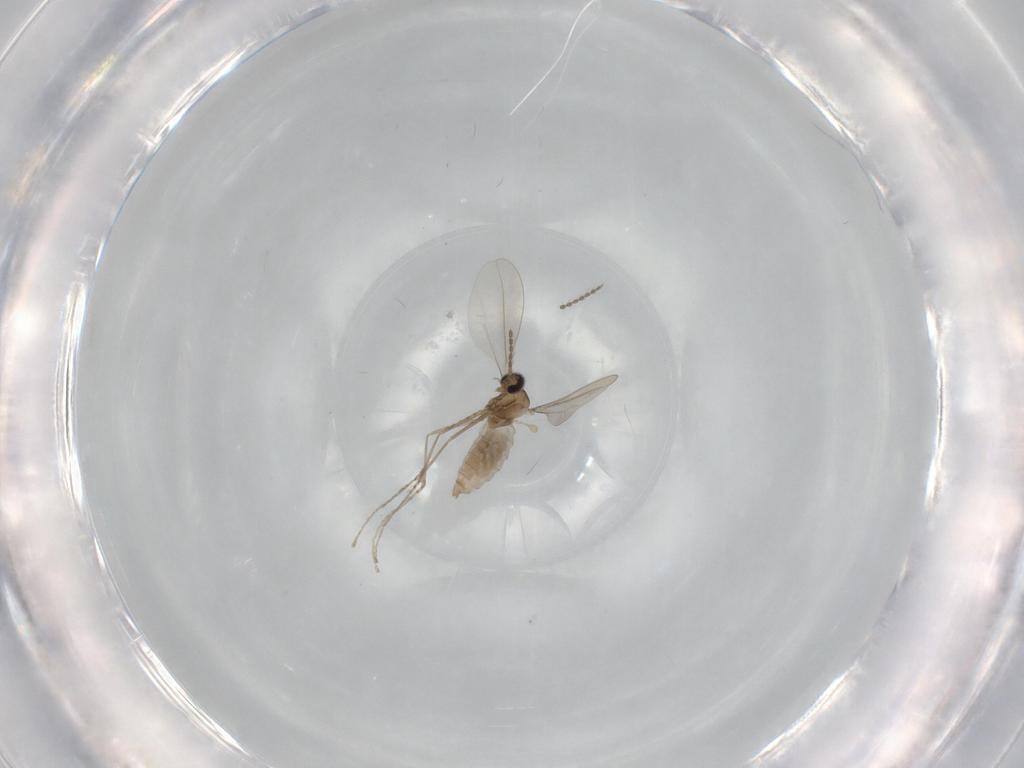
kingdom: Animalia
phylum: Arthropoda
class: Insecta
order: Diptera
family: Cecidomyiidae
